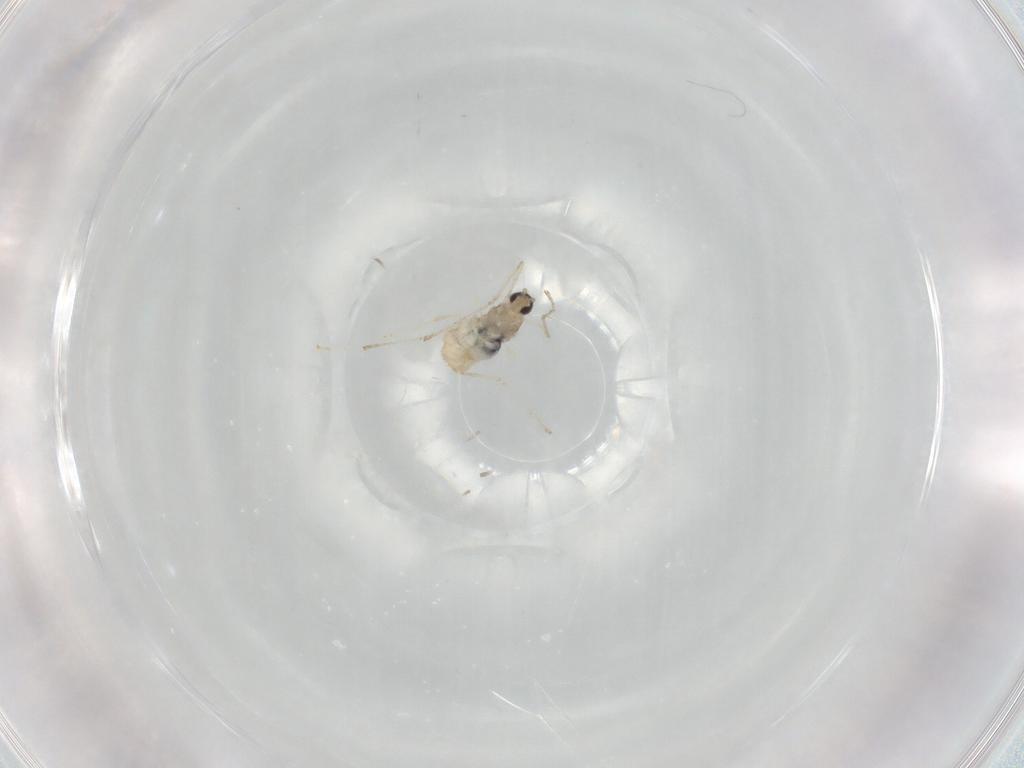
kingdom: Animalia
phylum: Arthropoda
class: Insecta
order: Diptera
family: Cecidomyiidae
